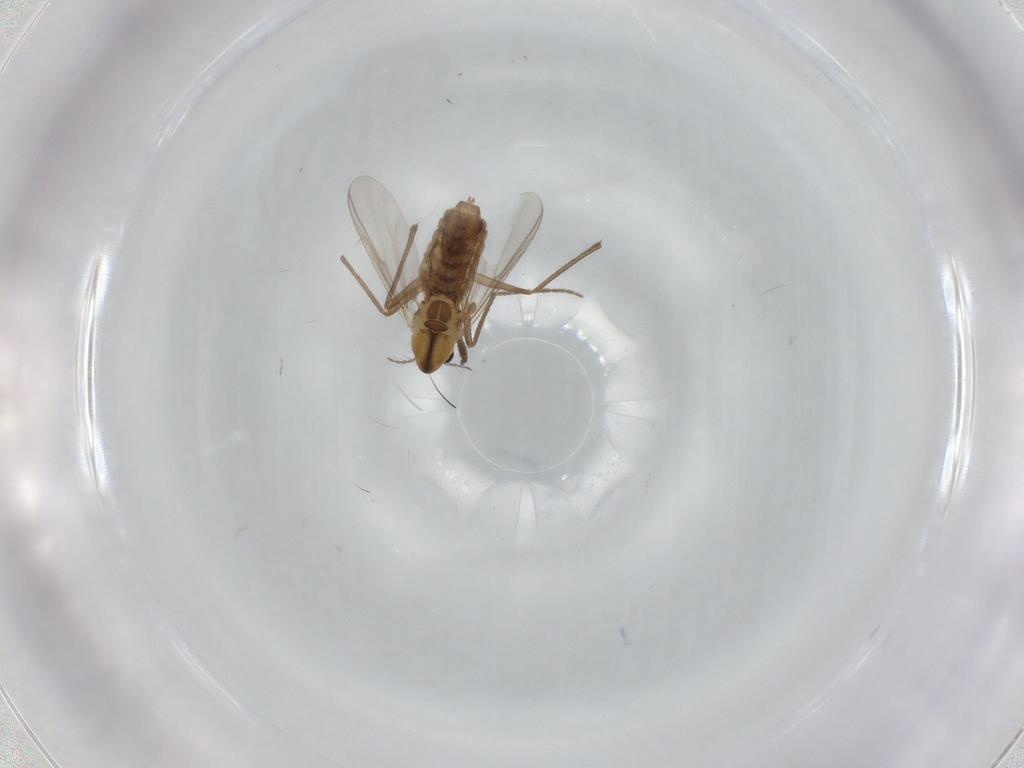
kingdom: Animalia
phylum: Arthropoda
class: Insecta
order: Diptera
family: Chironomidae
